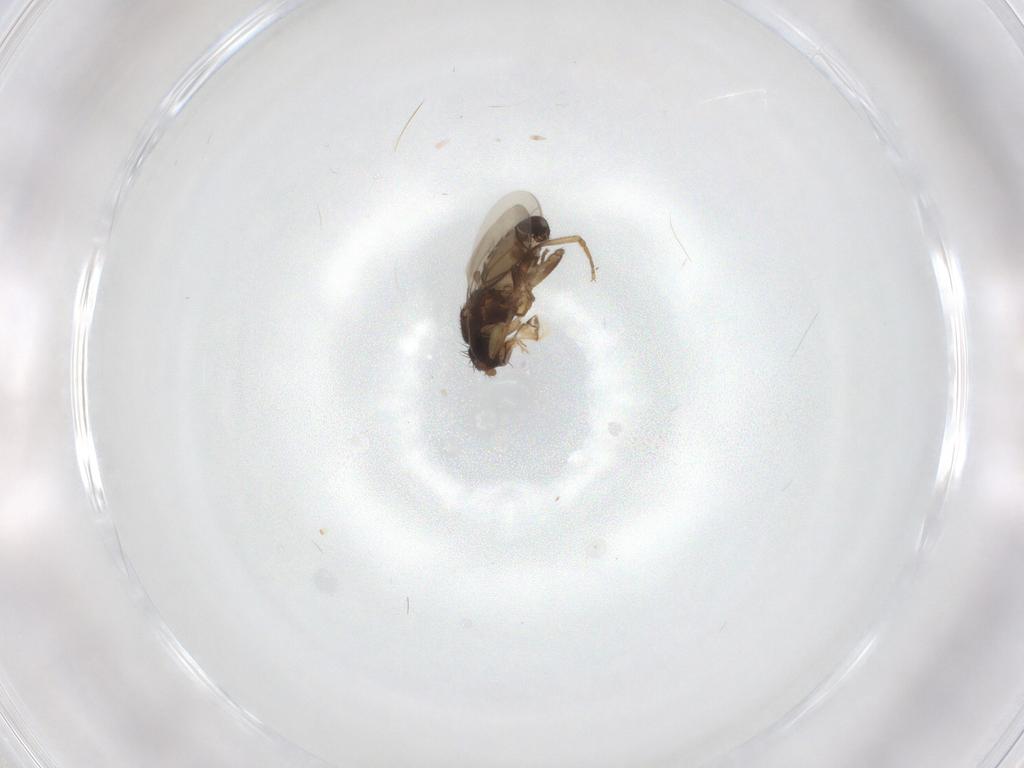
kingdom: Animalia
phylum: Arthropoda
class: Insecta
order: Diptera
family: Sphaeroceridae
